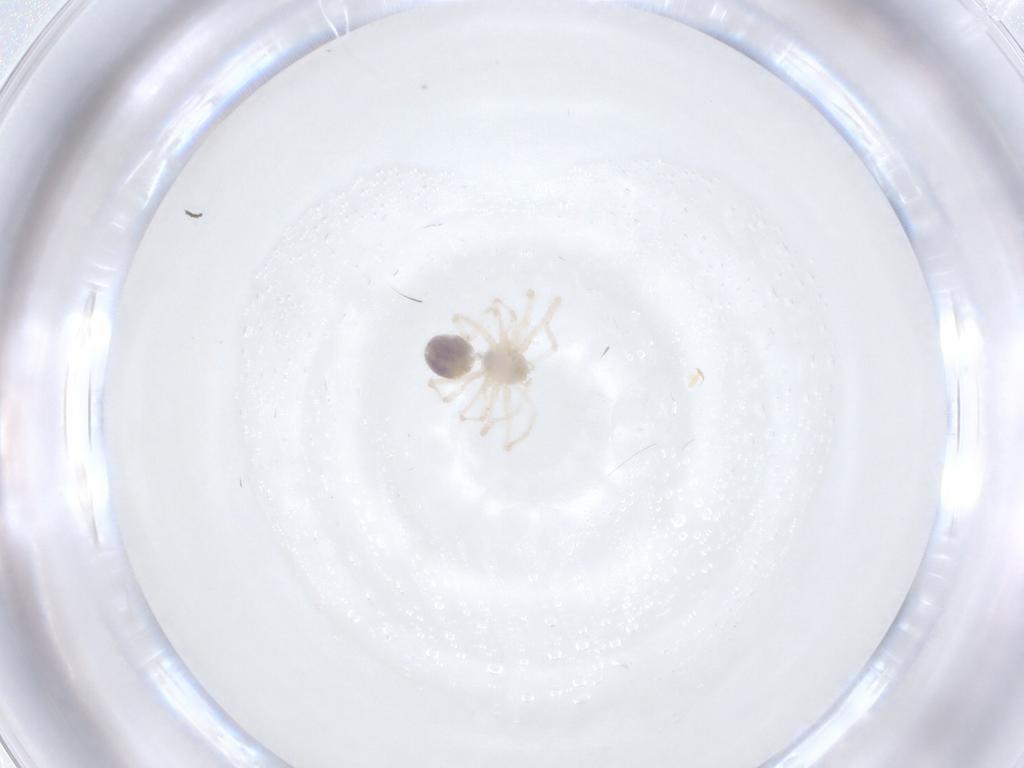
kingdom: Animalia
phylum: Arthropoda
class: Arachnida
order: Araneae
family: Pholcidae
